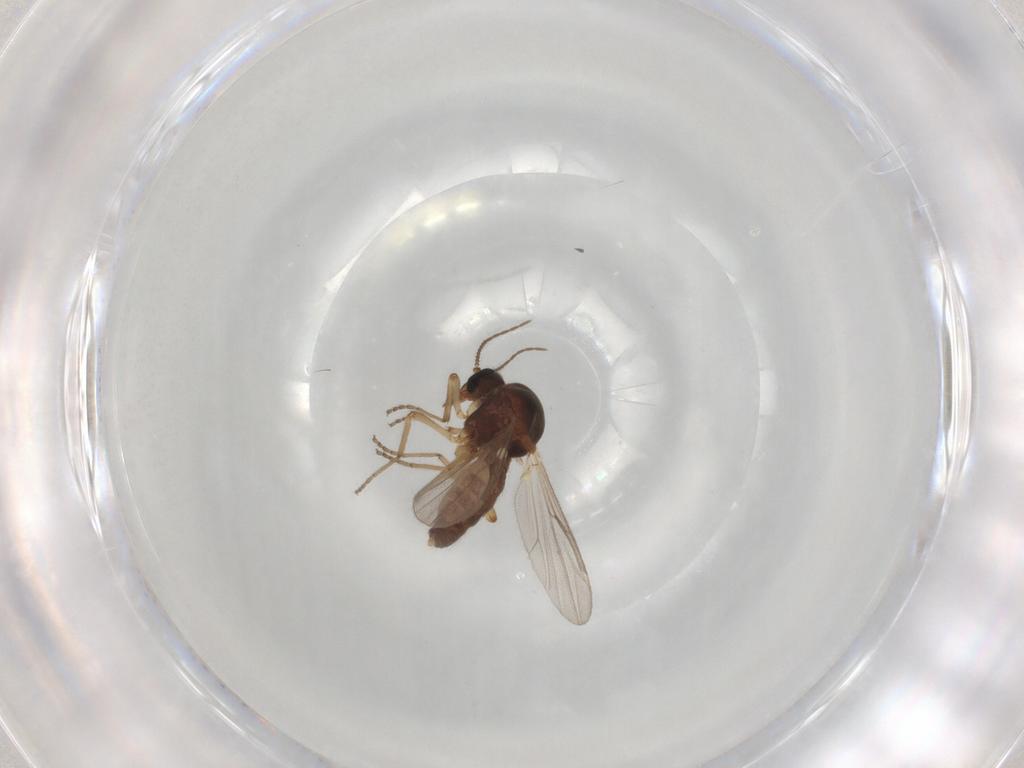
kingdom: Animalia
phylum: Arthropoda
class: Insecta
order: Diptera
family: Ceratopogonidae
